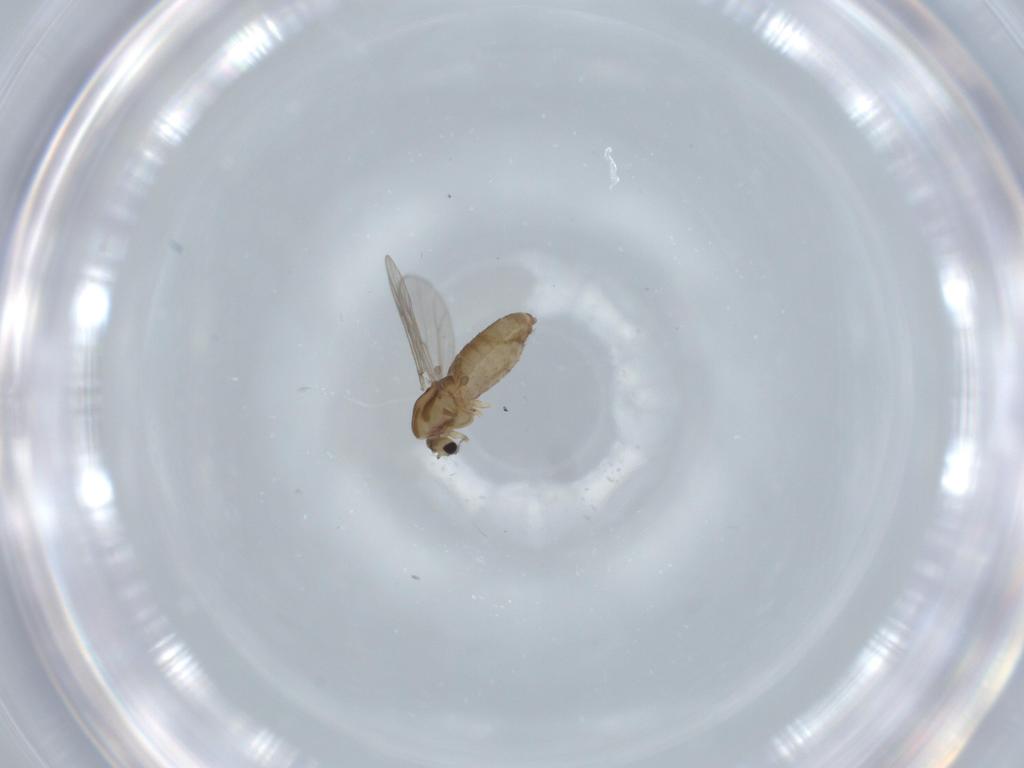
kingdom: Animalia
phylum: Arthropoda
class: Insecta
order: Diptera
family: Chironomidae
